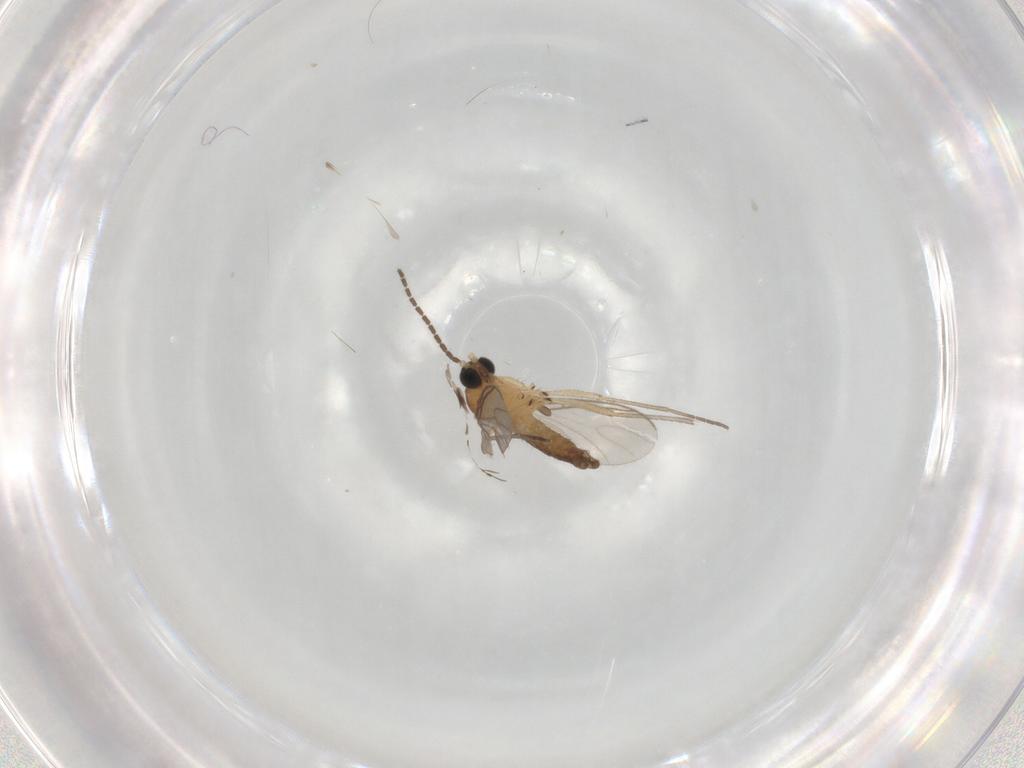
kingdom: Animalia
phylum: Arthropoda
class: Insecta
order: Diptera
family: Sciaridae
